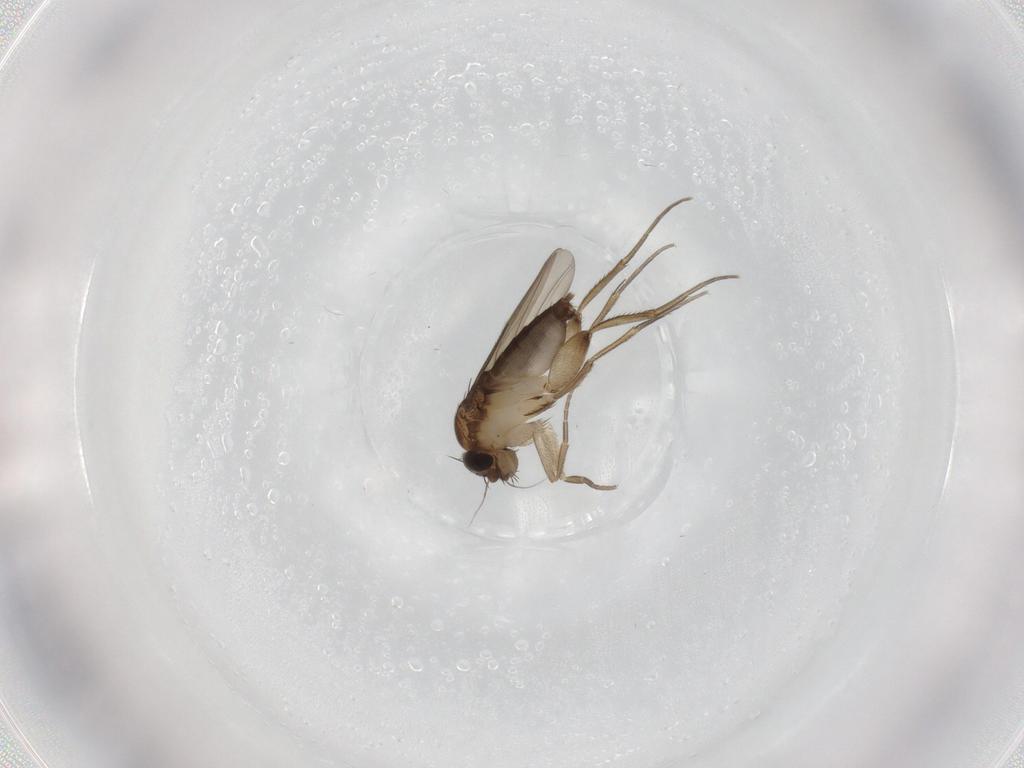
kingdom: Animalia
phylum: Arthropoda
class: Insecta
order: Diptera
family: Phoridae
